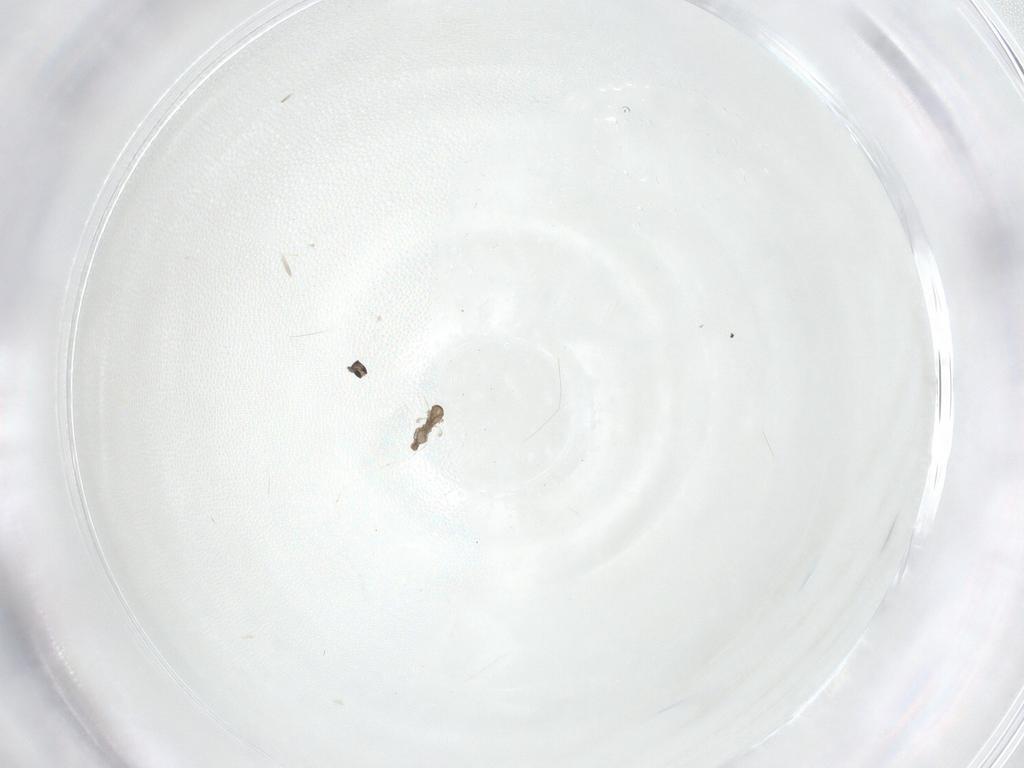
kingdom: Animalia
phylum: Arthropoda
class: Insecta
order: Diptera
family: Cecidomyiidae
